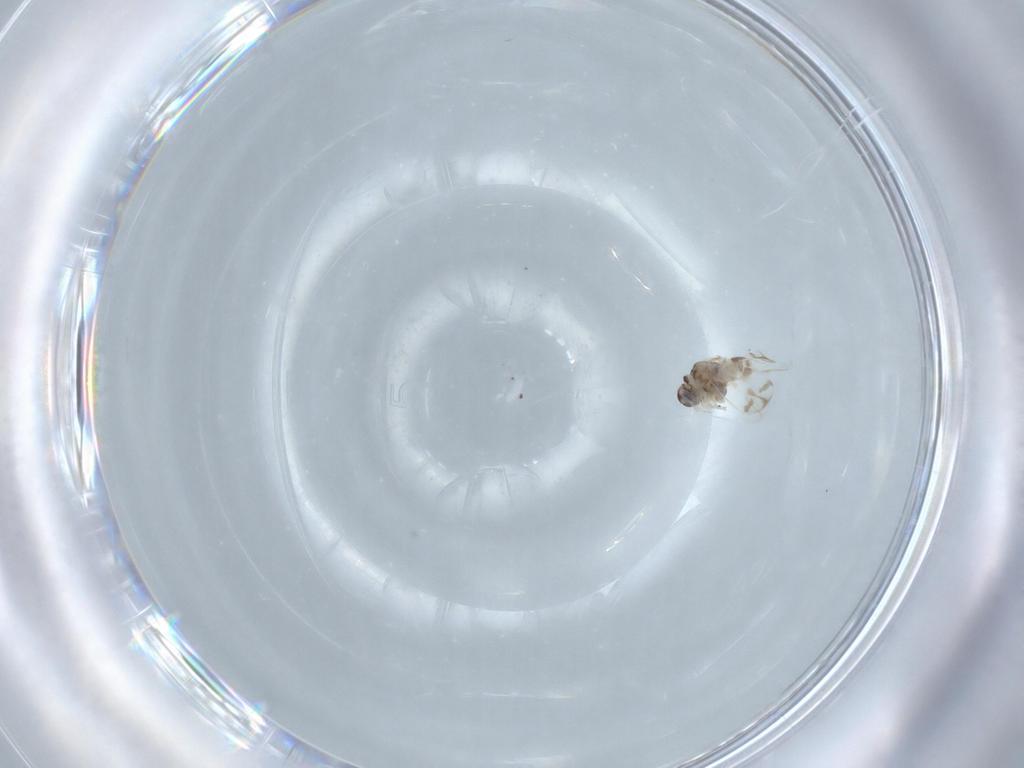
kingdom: Animalia
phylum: Arthropoda
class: Insecta
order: Hemiptera
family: Aleyrodidae
